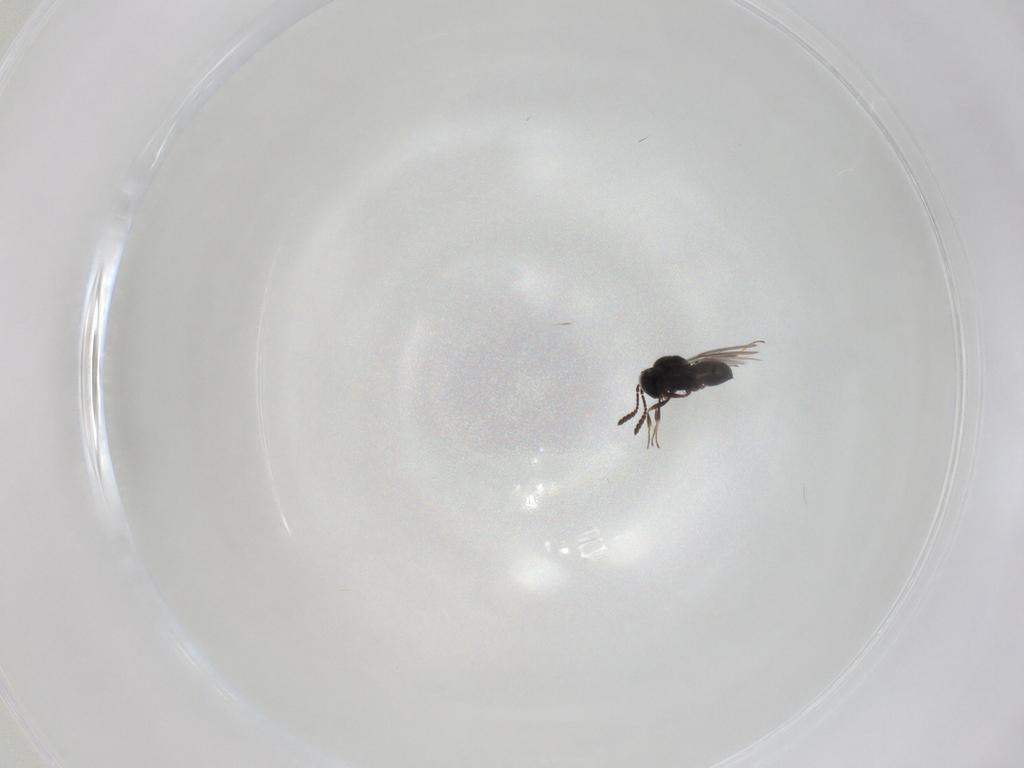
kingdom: Animalia
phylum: Arthropoda
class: Insecta
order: Hymenoptera
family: Scelionidae
